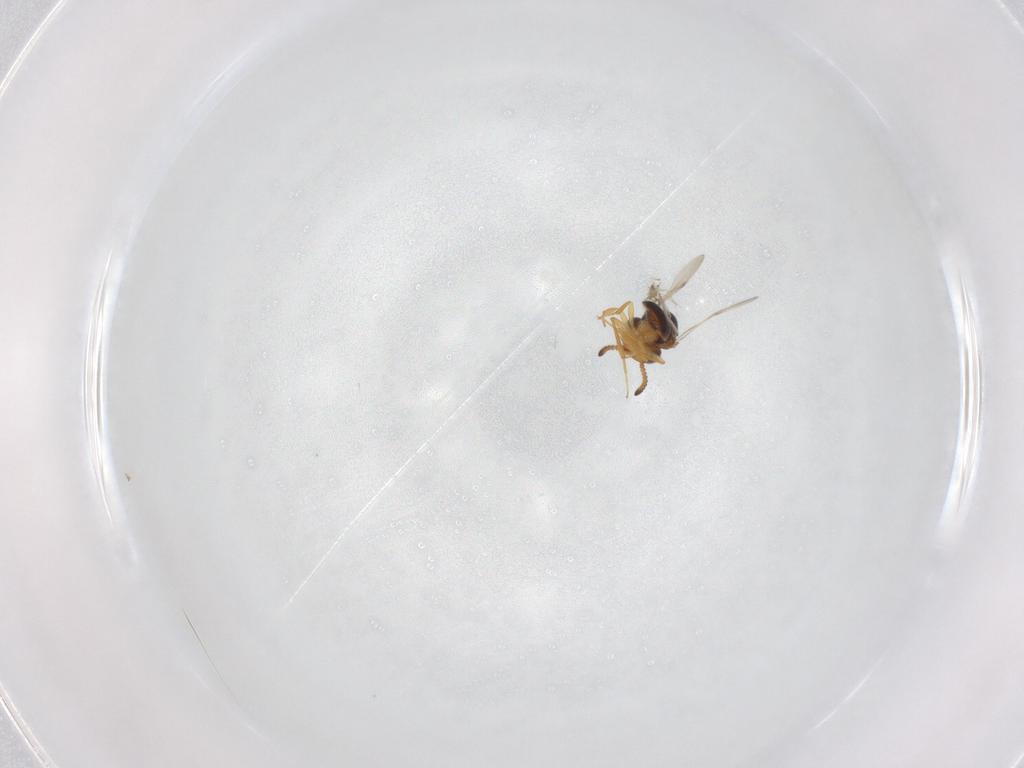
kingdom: Animalia
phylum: Arthropoda
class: Insecta
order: Hymenoptera
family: Scelionidae
